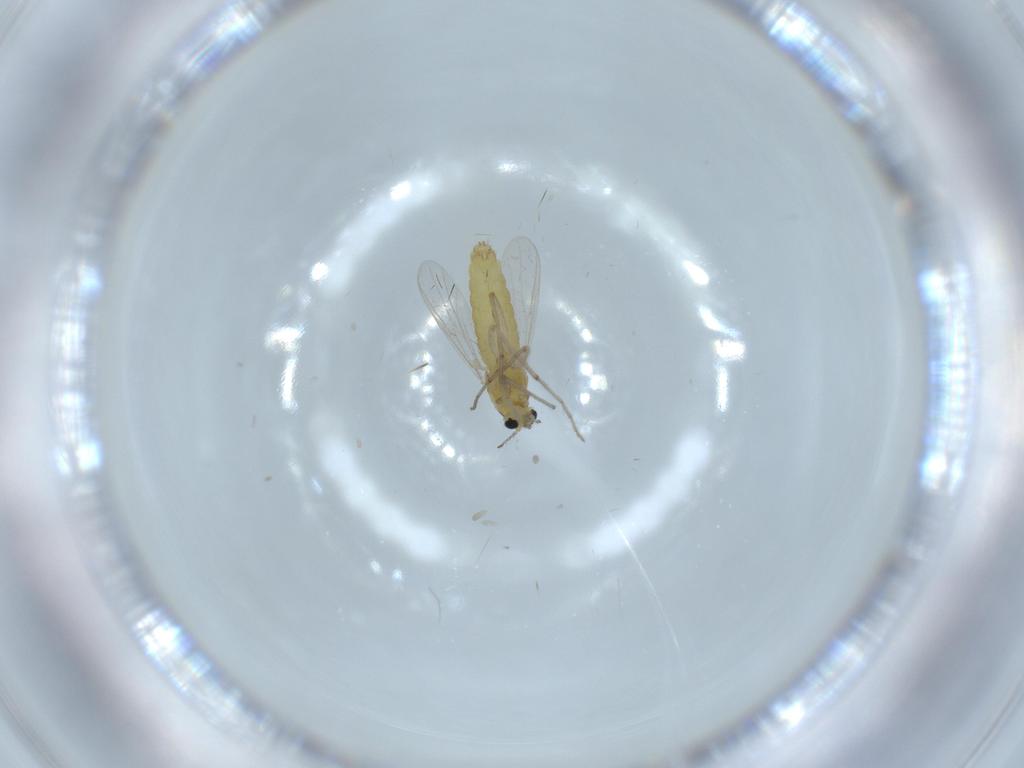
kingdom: Animalia
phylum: Arthropoda
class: Insecta
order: Diptera
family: Chironomidae
